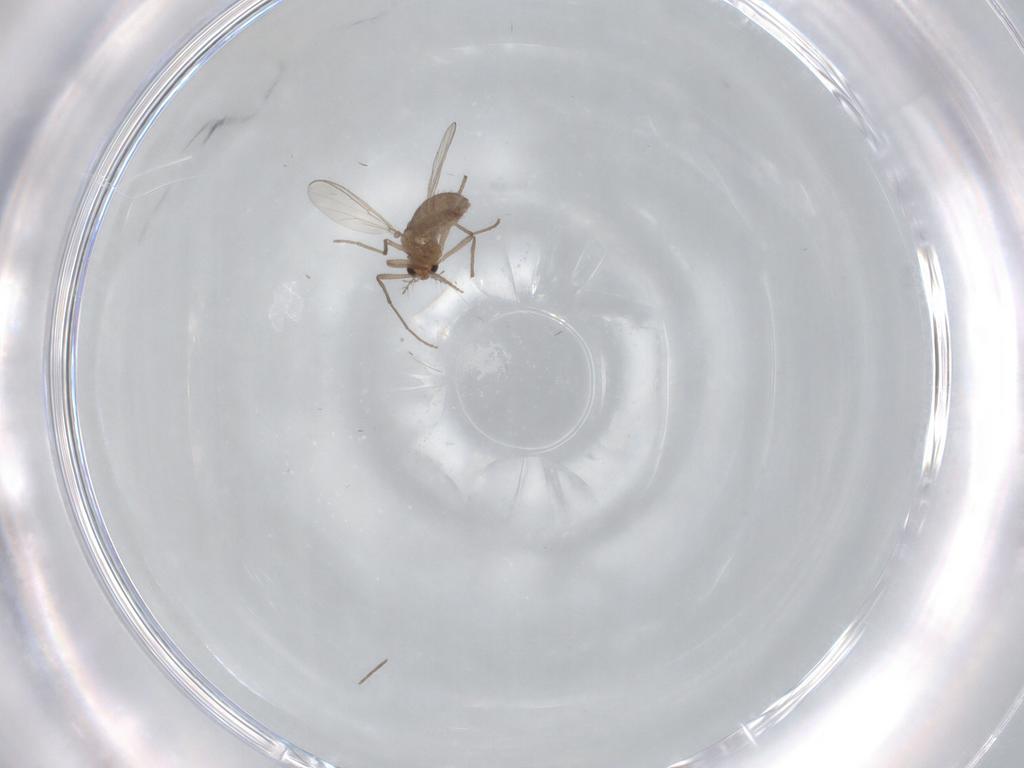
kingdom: Animalia
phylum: Arthropoda
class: Insecta
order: Diptera
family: Chironomidae
